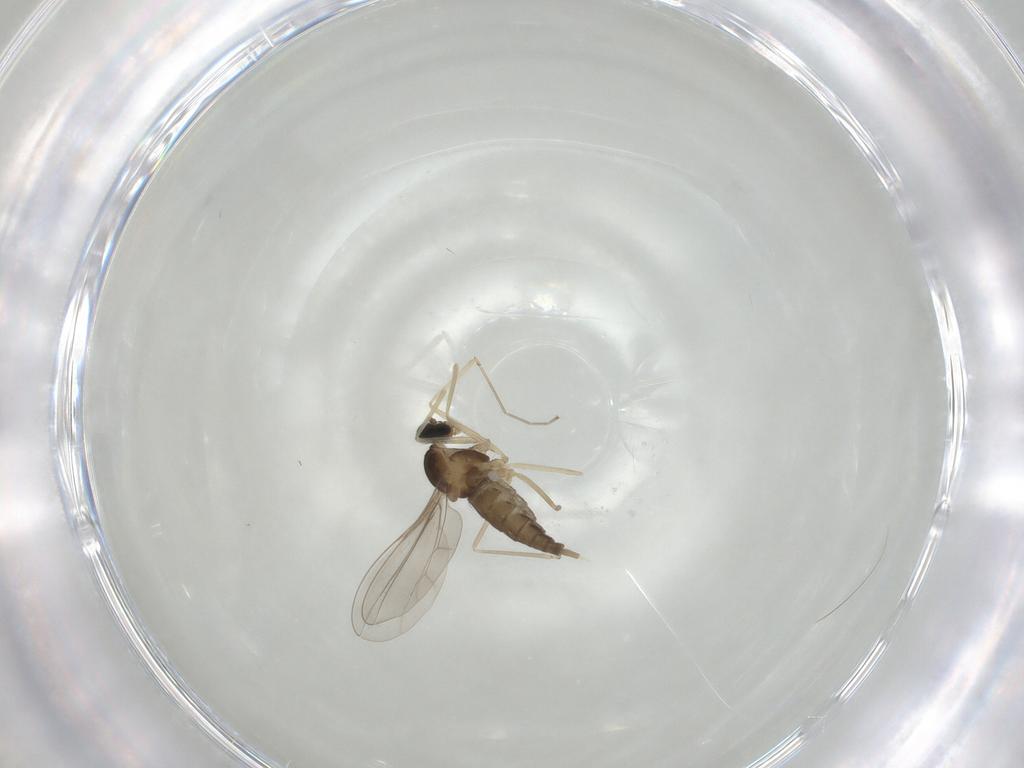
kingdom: Animalia
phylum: Arthropoda
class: Insecta
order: Diptera
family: Cecidomyiidae
